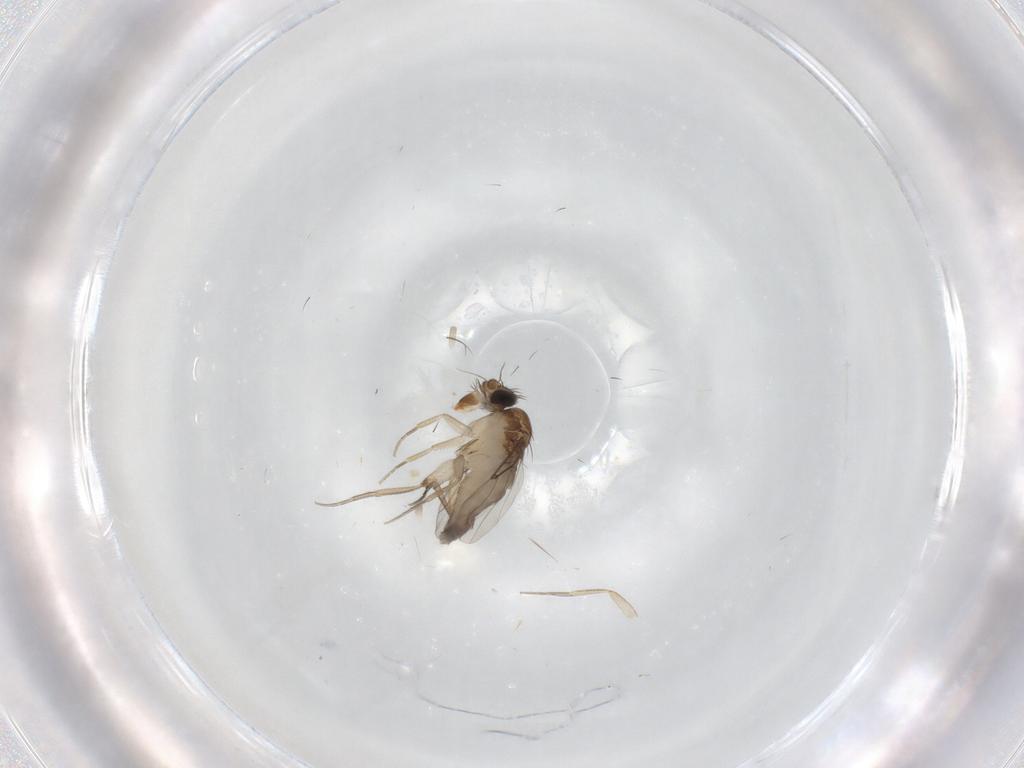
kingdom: Animalia
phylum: Arthropoda
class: Insecta
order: Diptera
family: Phoridae
